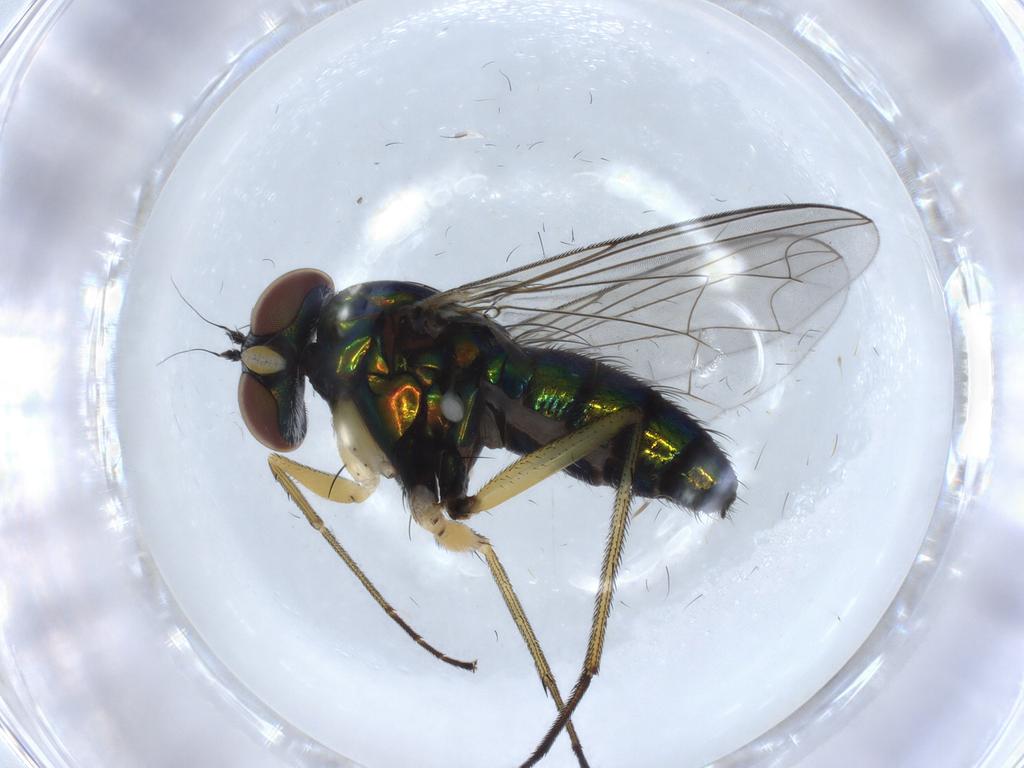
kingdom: Animalia
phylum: Arthropoda
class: Insecta
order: Diptera
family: Dolichopodidae
